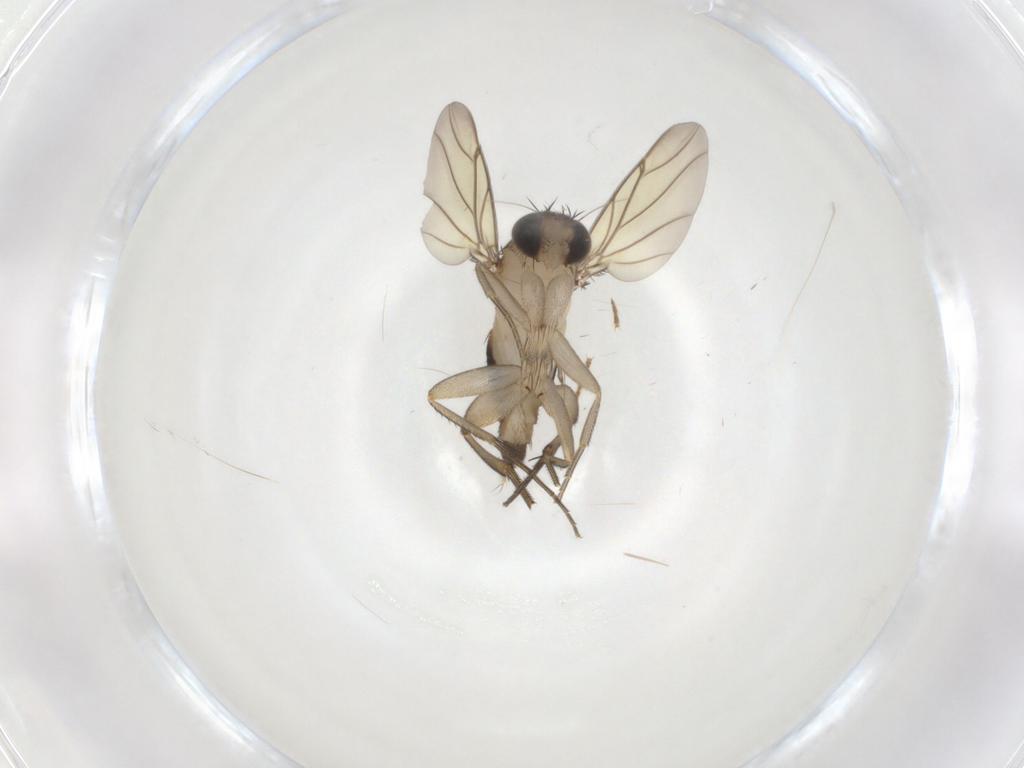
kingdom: Animalia
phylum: Arthropoda
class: Insecta
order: Diptera
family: Phoridae
